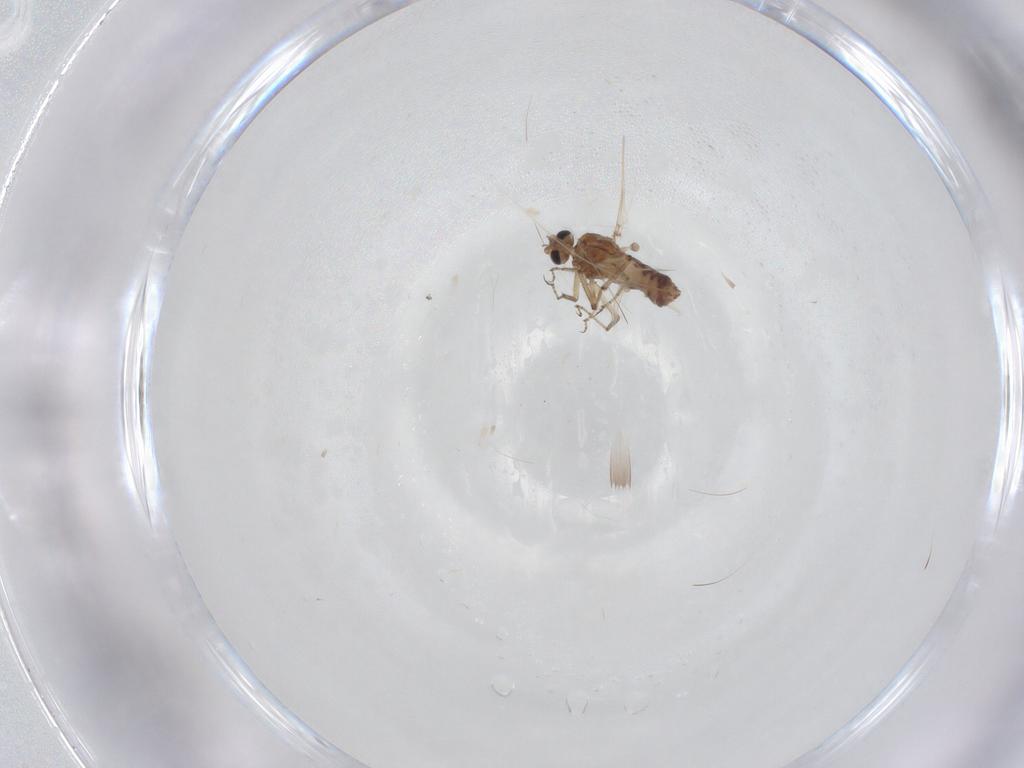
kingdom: Animalia
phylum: Arthropoda
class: Insecta
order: Diptera
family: Ceratopogonidae
